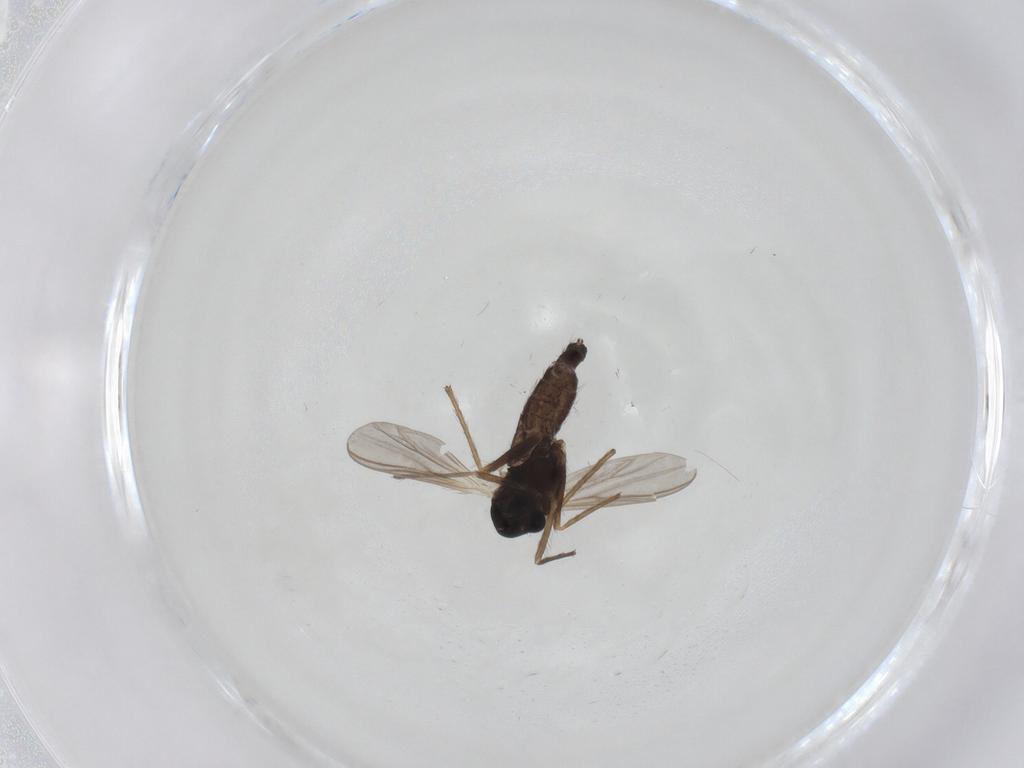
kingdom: Animalia
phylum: Arthropoda
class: Insecta
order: Diptera
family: Chironomidae
